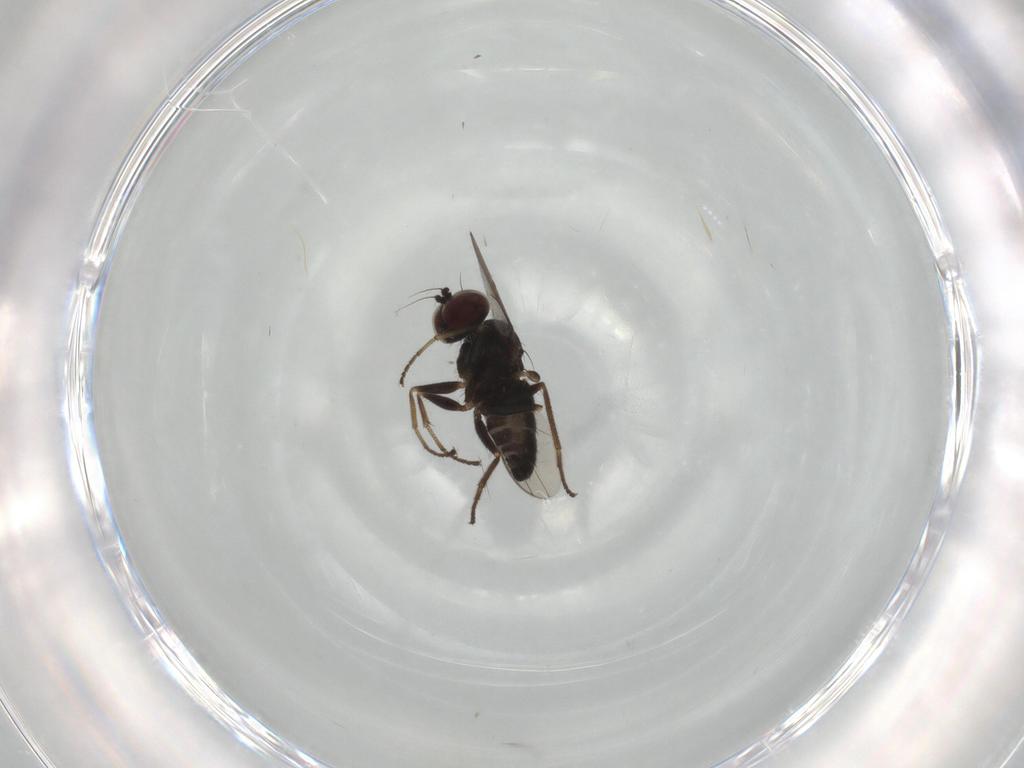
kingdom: Animalia
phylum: Arthropoda
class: Insecta
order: Diptera
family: Dolichopodidae
